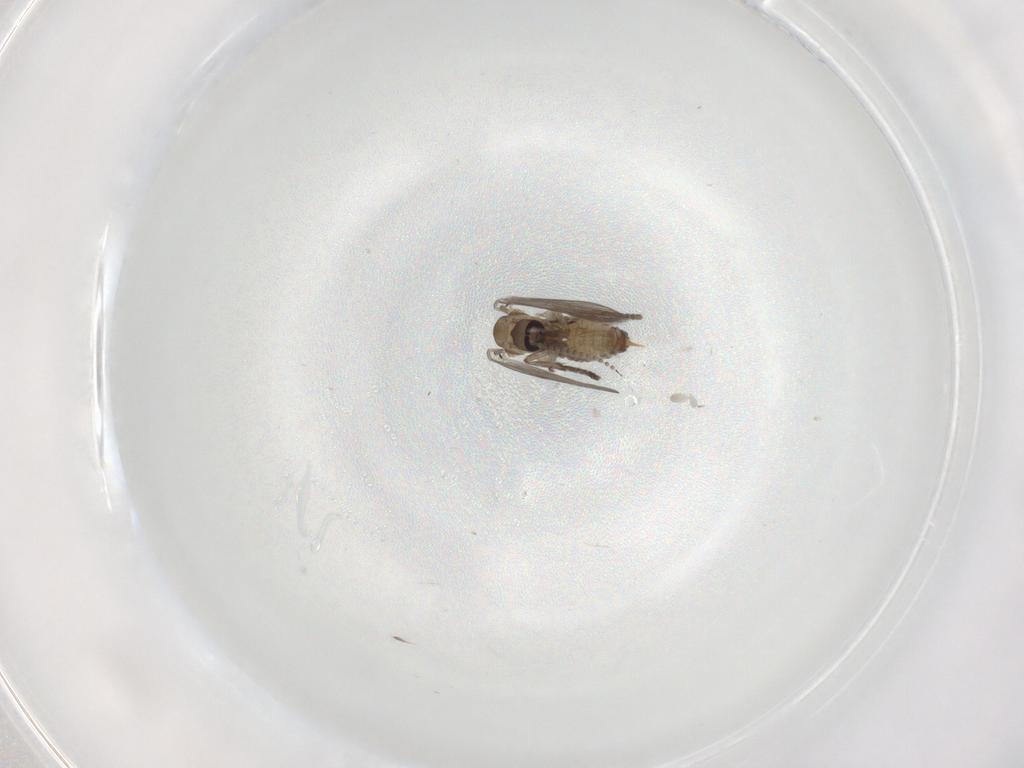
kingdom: Animalia
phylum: Arthropoda
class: Insecta
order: Diptera
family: Psychodidae
